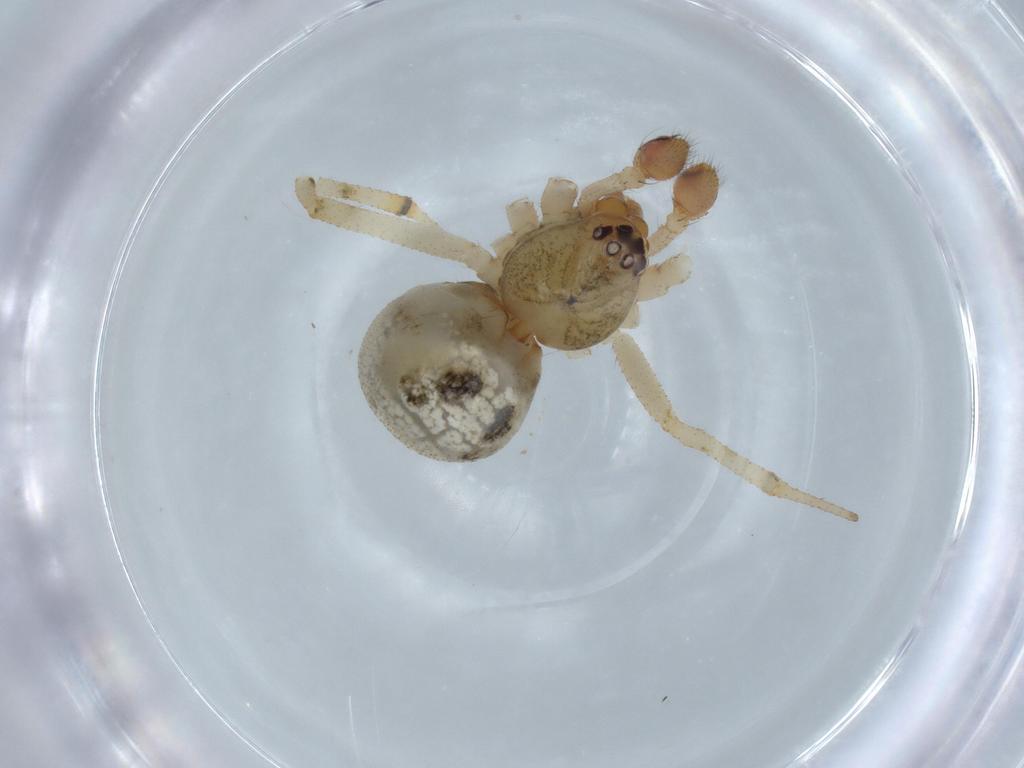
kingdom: Animalia
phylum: Arthropoda
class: Arachnida
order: Araneae
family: Theridiidae
